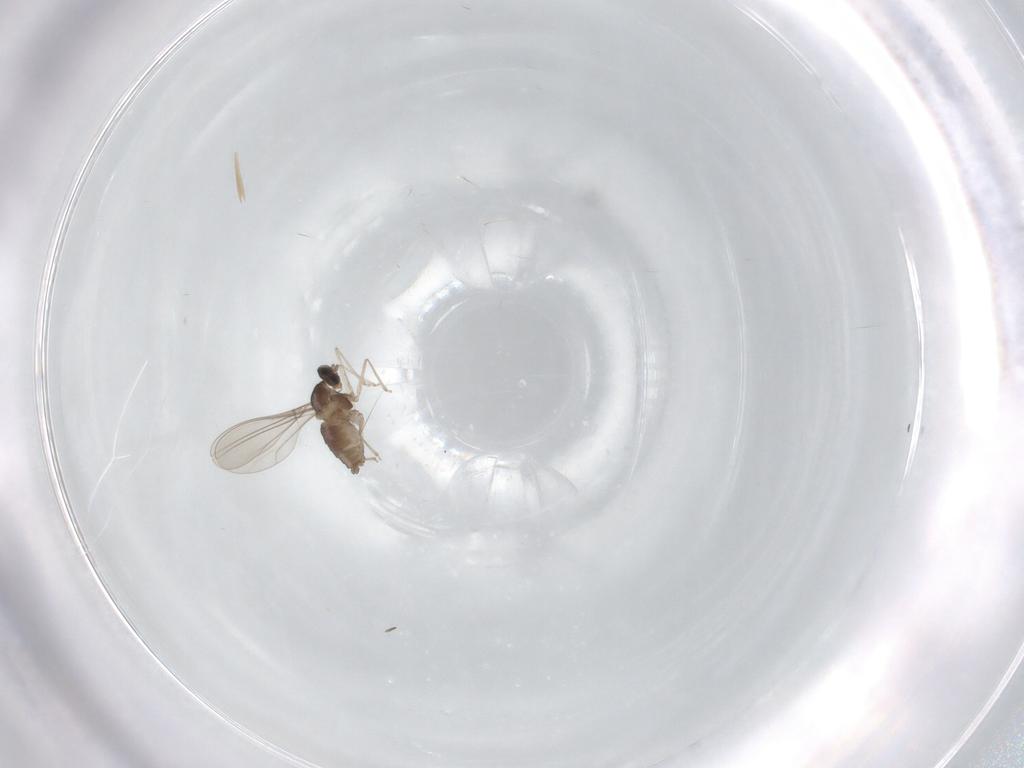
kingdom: Animalia
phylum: Arthropoda
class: Insecta
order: Diptera
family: Cecidomyiidae
